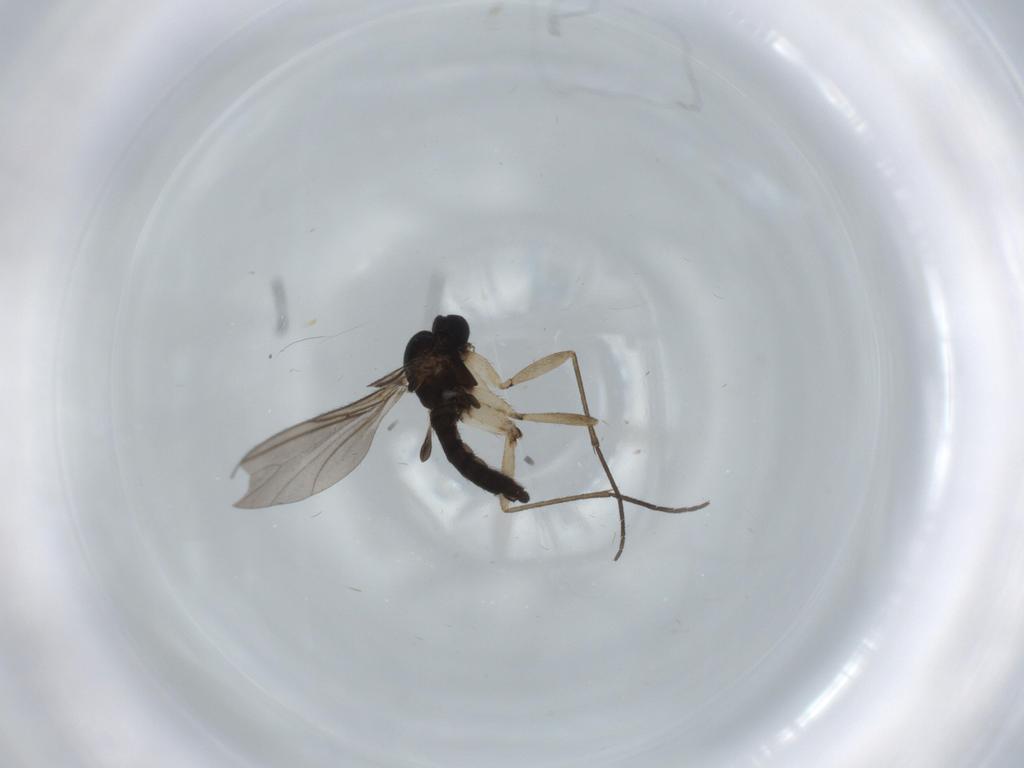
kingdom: Animalia
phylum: Arthropoda
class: Insecta
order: Diptera
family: Sciaridae
